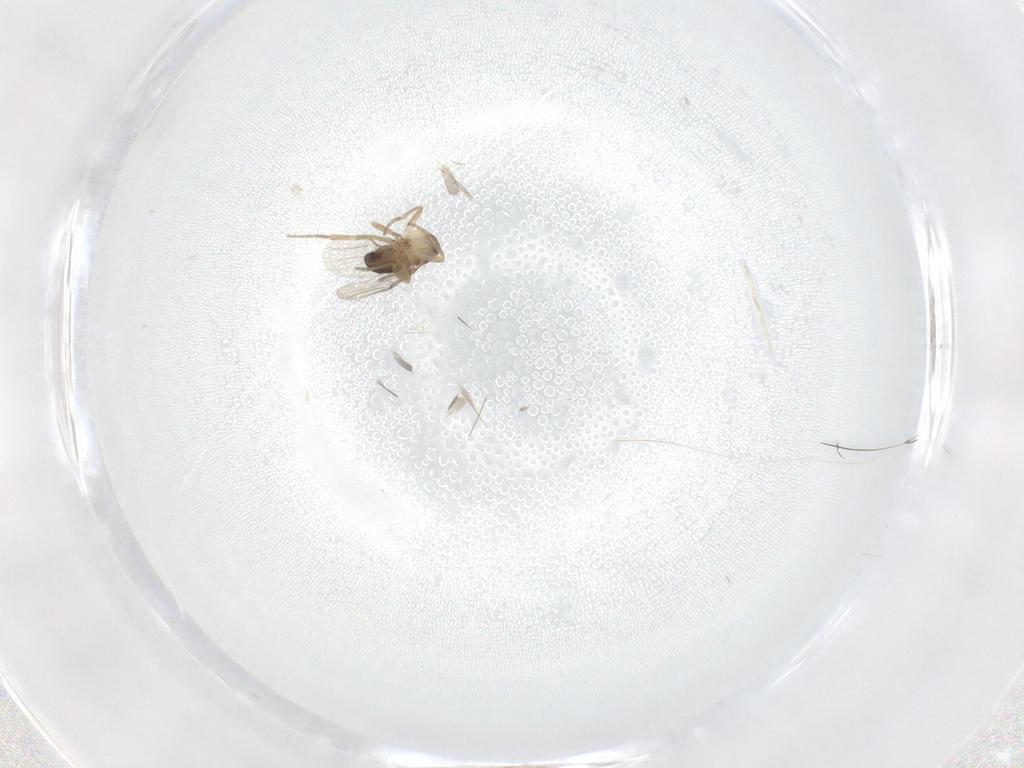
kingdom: Animalia
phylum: Arthropoda
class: Insecta
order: Diptera
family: Phoridae
